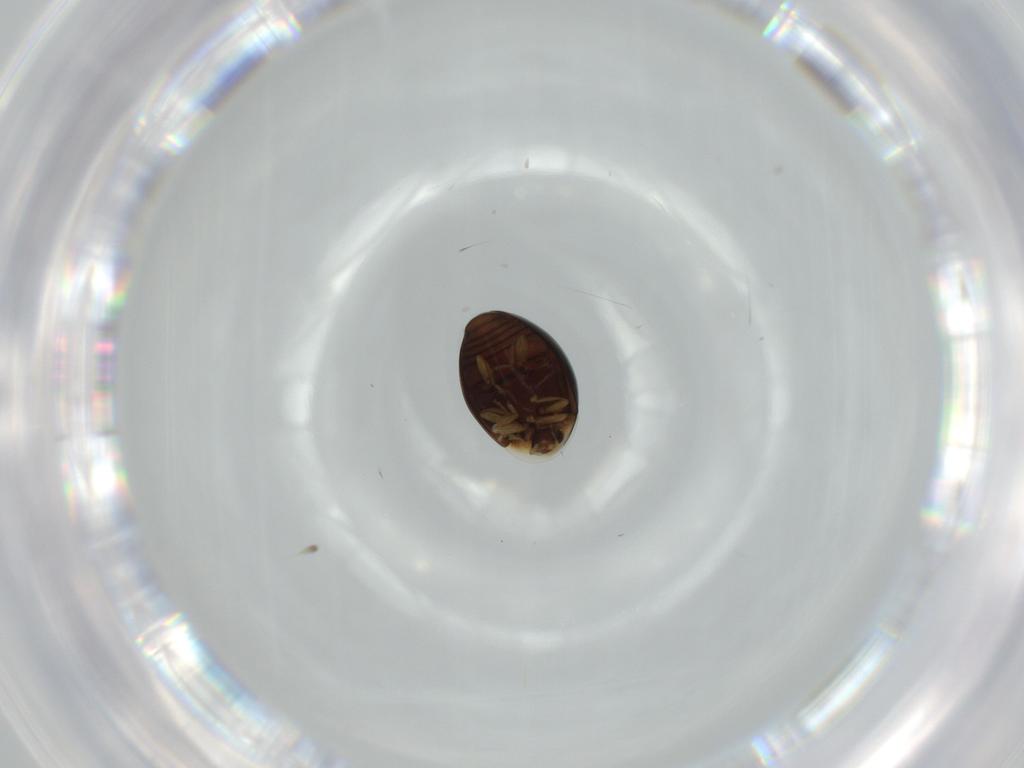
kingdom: Animalia
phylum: Arthropoda
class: Insecta
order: Coleoptera
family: Corylophidae
